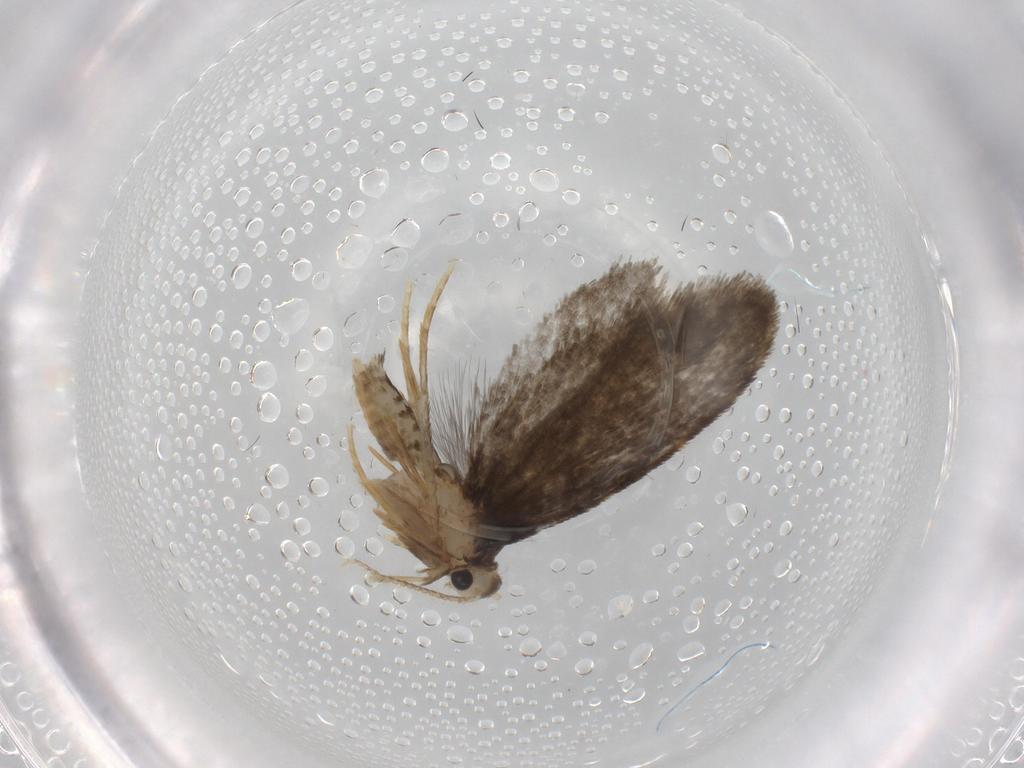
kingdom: Animalia
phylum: Arthropoda
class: Insecta
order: Lepidoptera
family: Psychidae
